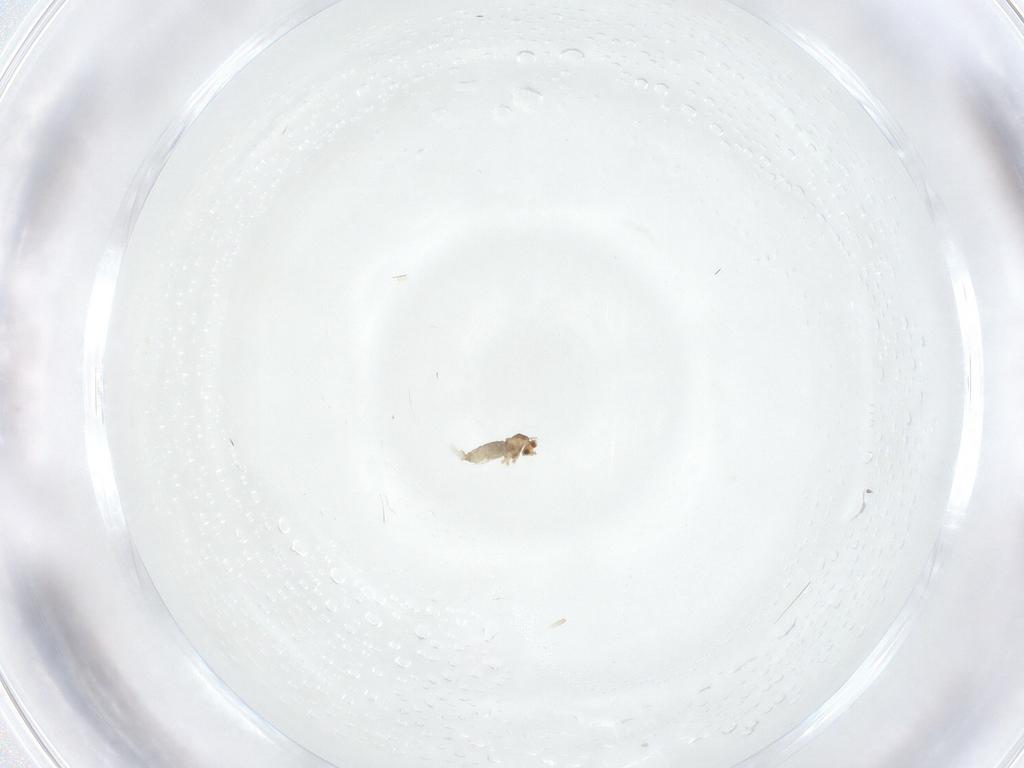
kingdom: Animalia
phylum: Arthropoda
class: Insecta
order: Diptera
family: Cecidomyiidae
